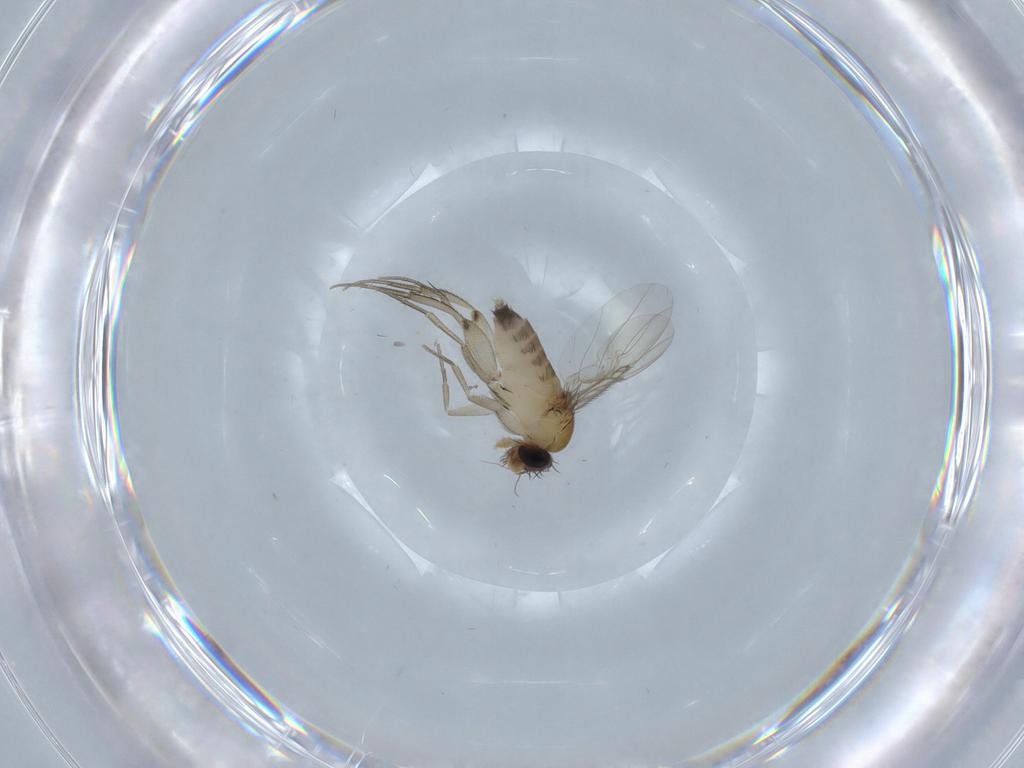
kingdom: Animalia
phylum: Arthropoda
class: Insecta
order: Diptera
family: Phoridae
